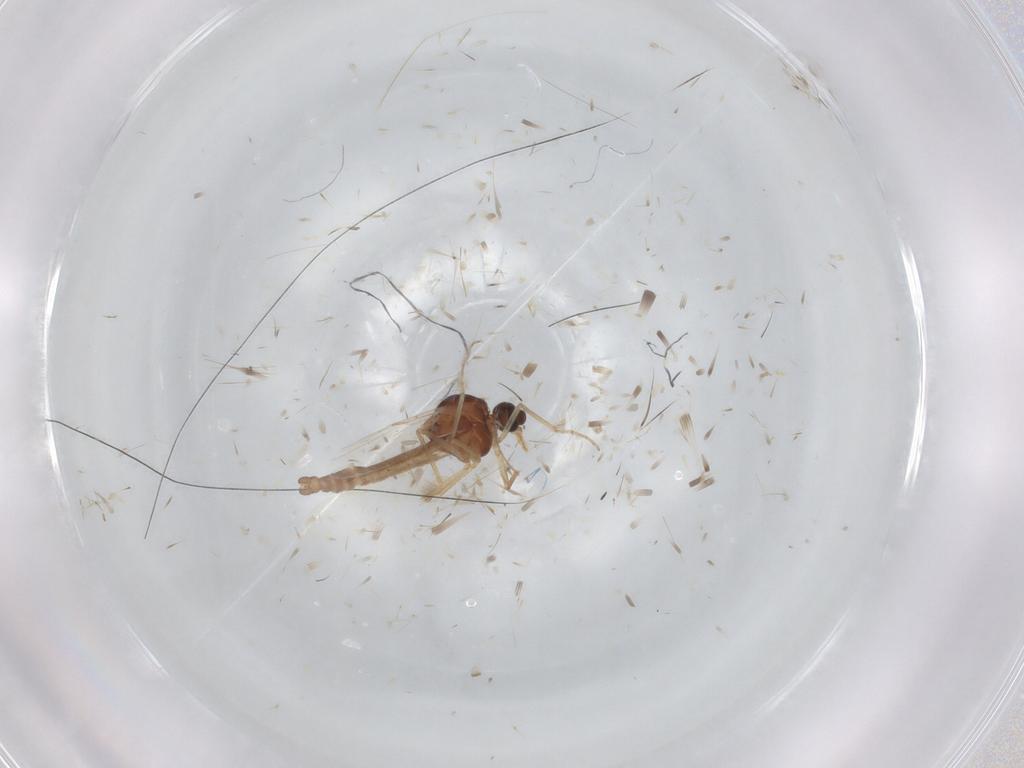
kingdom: Animalia
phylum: Arthropoda
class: Insecta
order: Diptera
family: Ceratopogonidae
